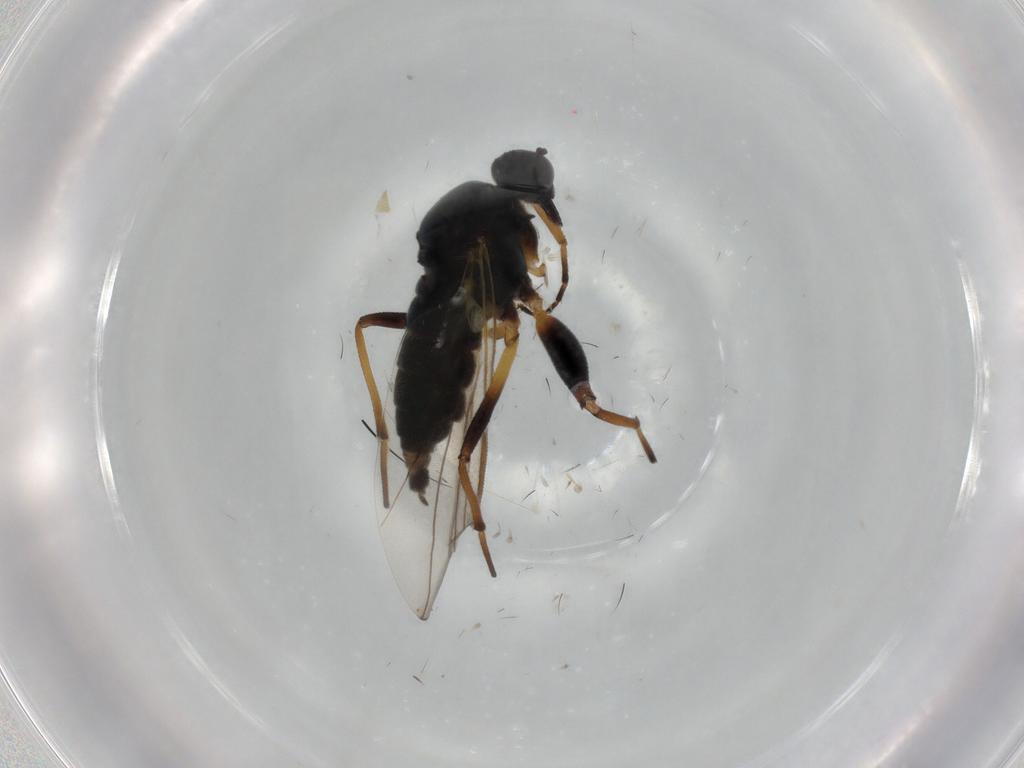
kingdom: Animalia
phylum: Arthropoda
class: Insecta
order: Diptera
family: Hybotidae
